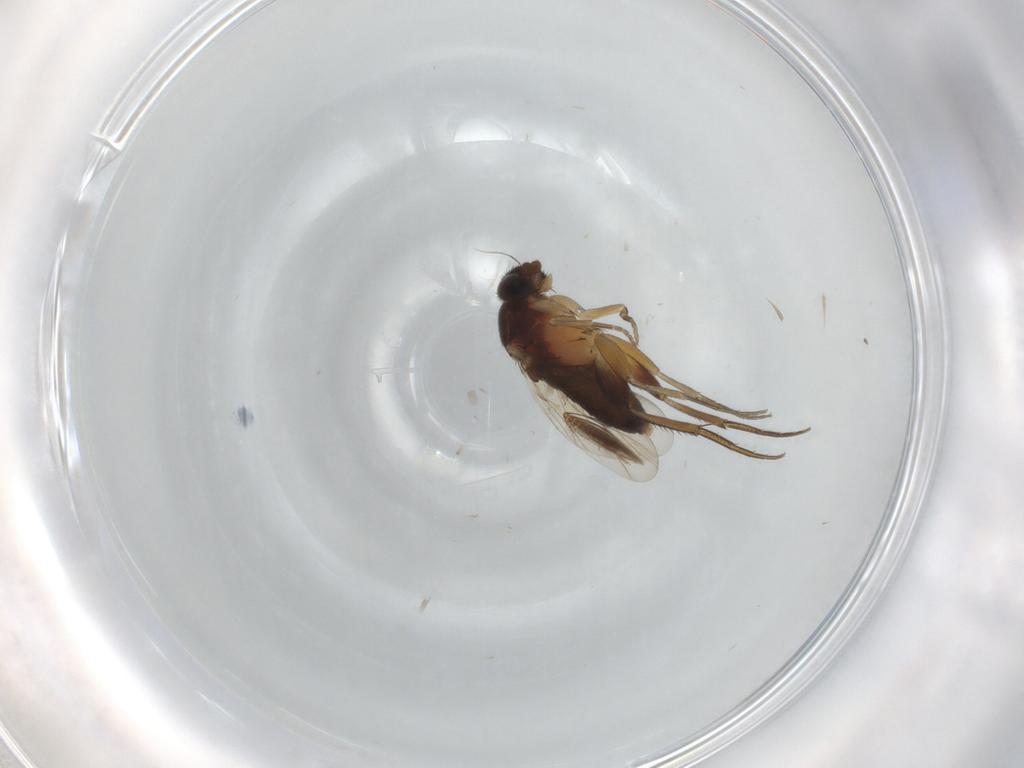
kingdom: Animalia
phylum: Arthropoda
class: Insecta
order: Diptera
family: Phoridae
